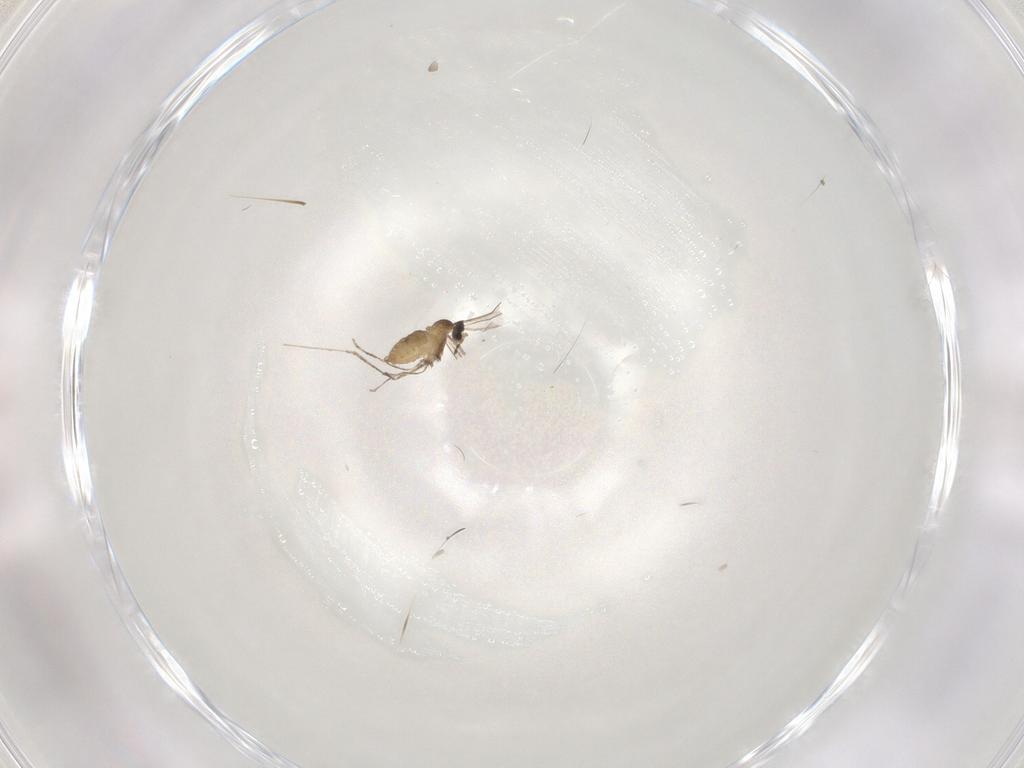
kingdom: Animalia
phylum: Arthropoda
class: Insecta
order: Diptera
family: Cecidomyiidae
